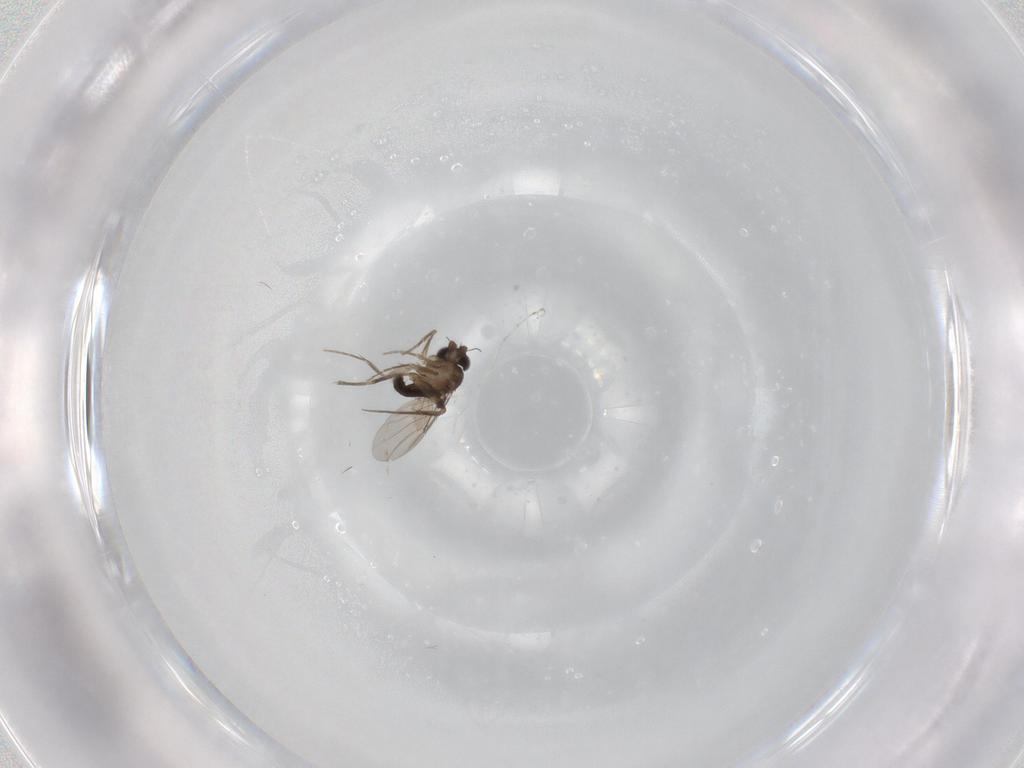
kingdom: Animalia
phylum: Arthropoda
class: Insecta
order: Diptera
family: Phoridae
